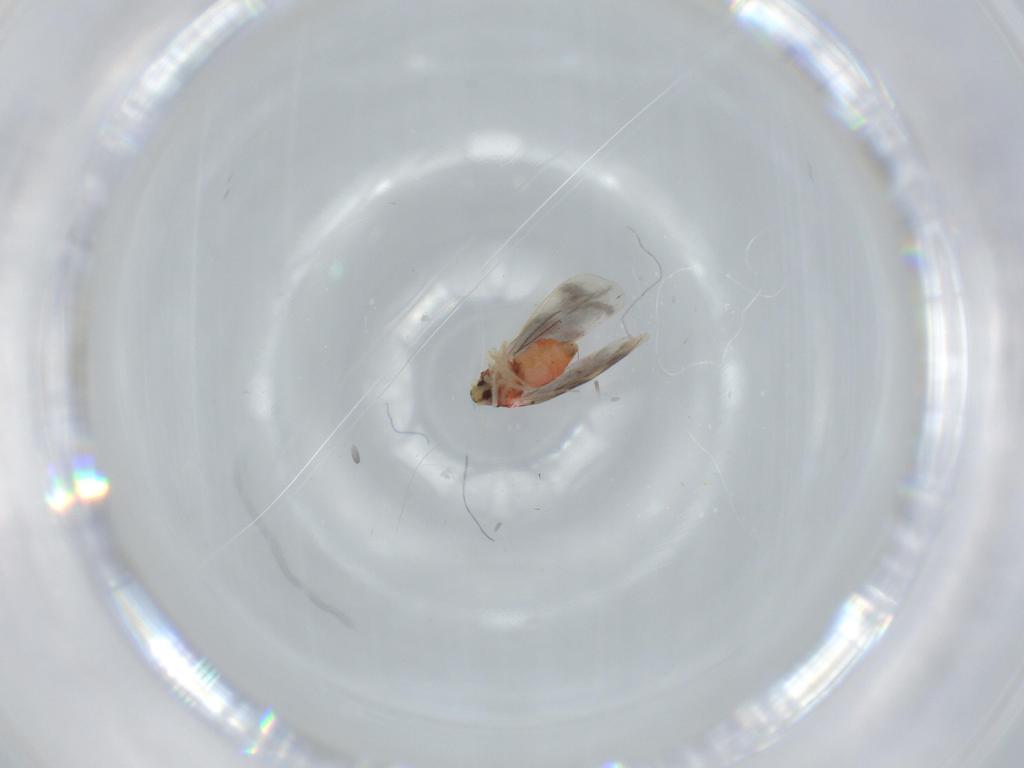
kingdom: Animalia
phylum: Arthropoda
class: Insecta
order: Hemiptera
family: Aleyrodidae
